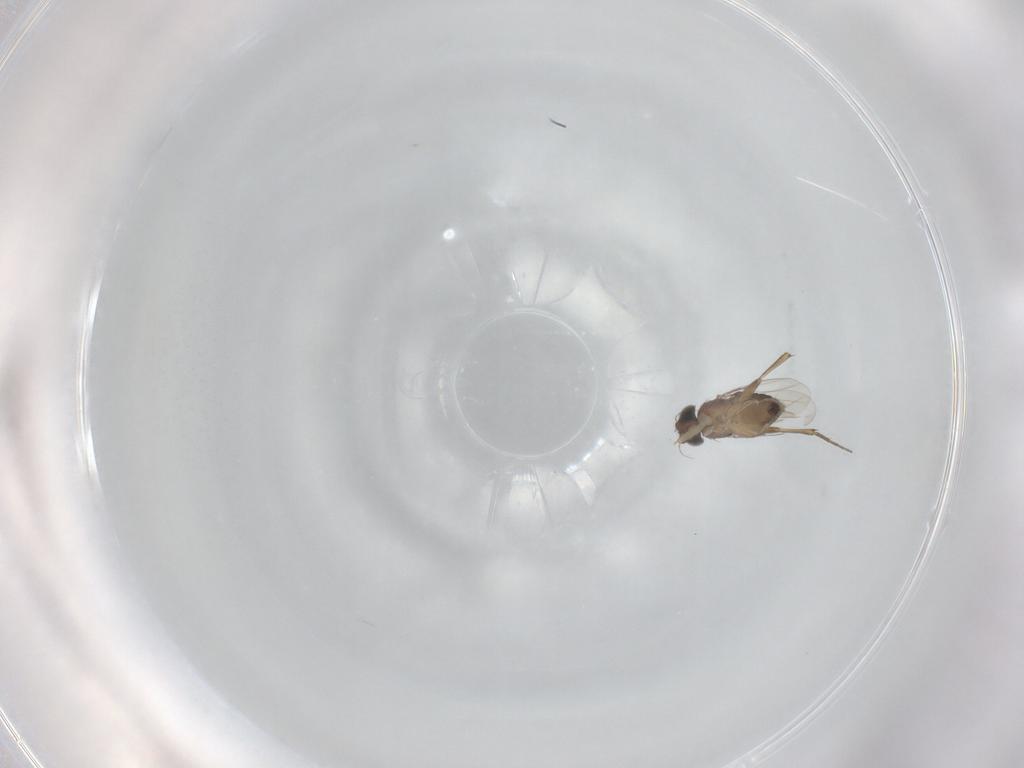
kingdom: Animalia
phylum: Arthropoda
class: Insecta
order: Diptera
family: Phoridae
